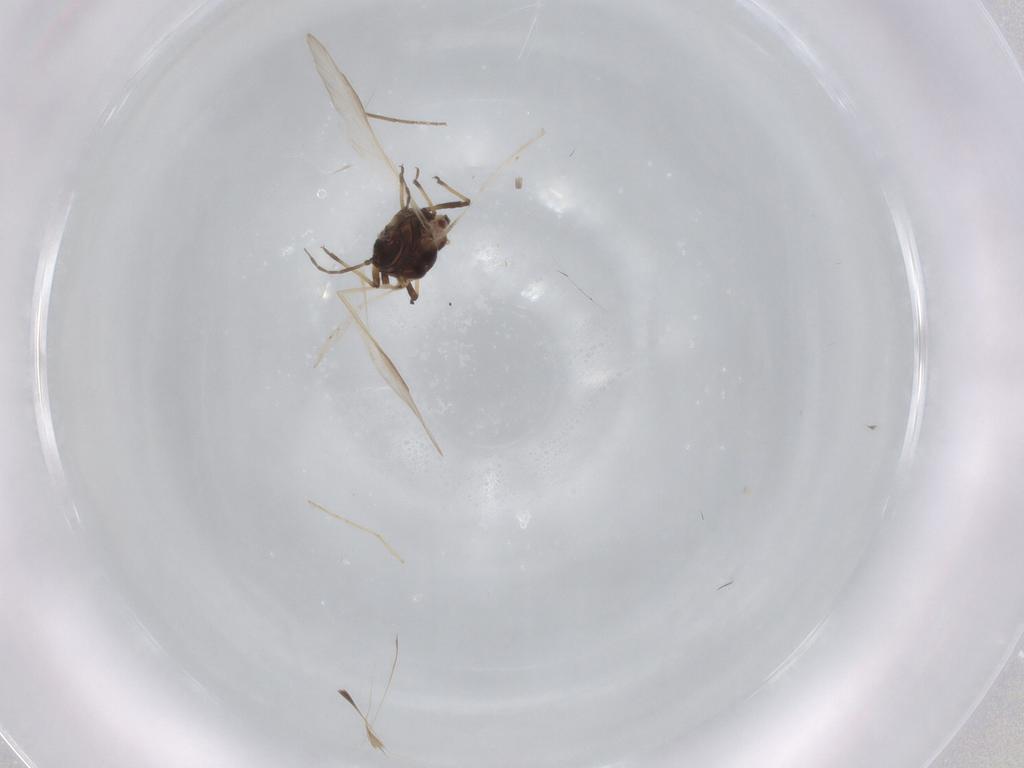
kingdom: Animalia
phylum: Arthropoda
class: Insecta
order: Hemiptera
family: Aphididae
